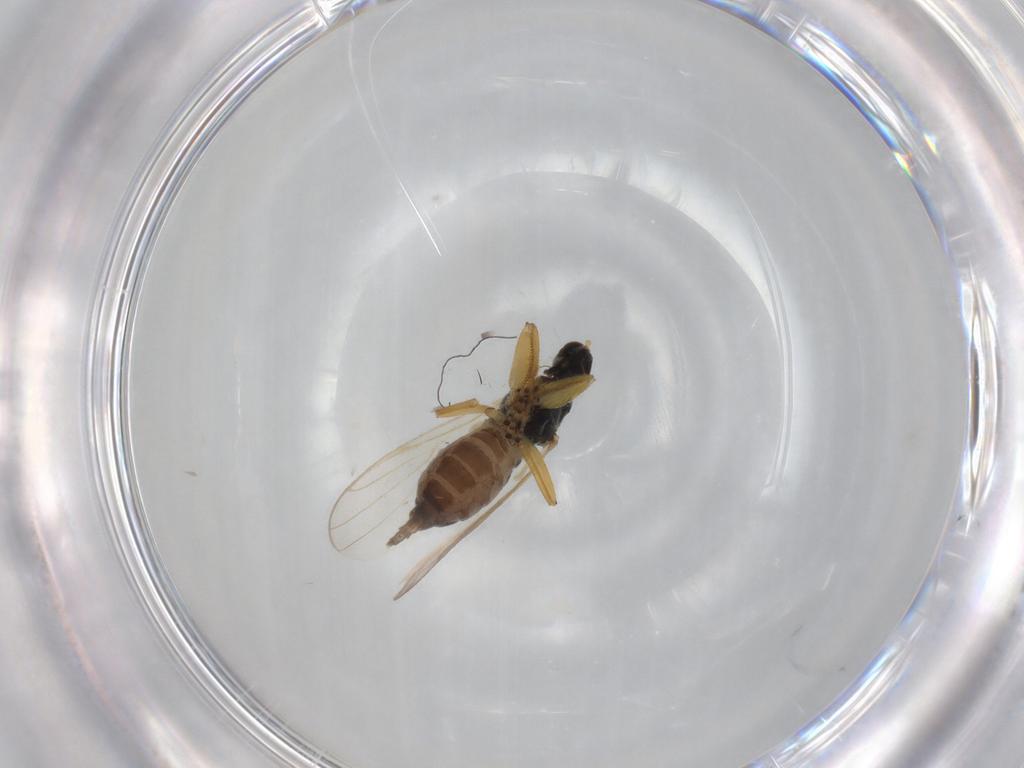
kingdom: Animalia
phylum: Arthropoda
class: Insecta
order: Diptera
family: Hybotidae
